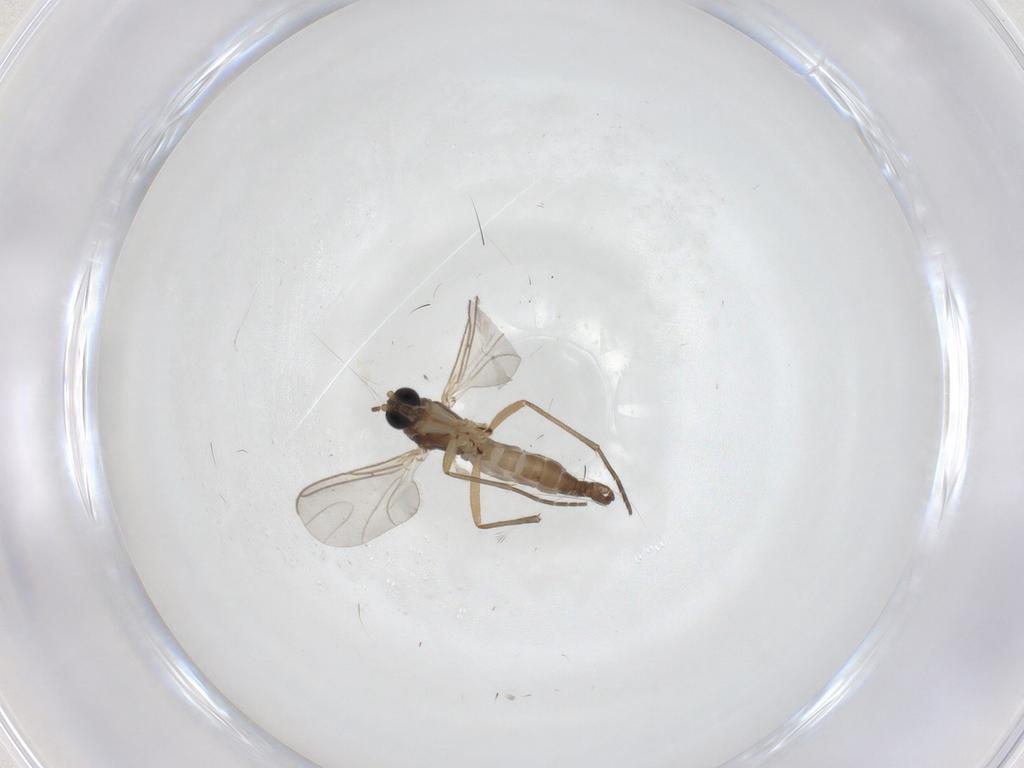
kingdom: Animalia
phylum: Arthropoda
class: Insecta
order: Diptera
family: Sciaridae
